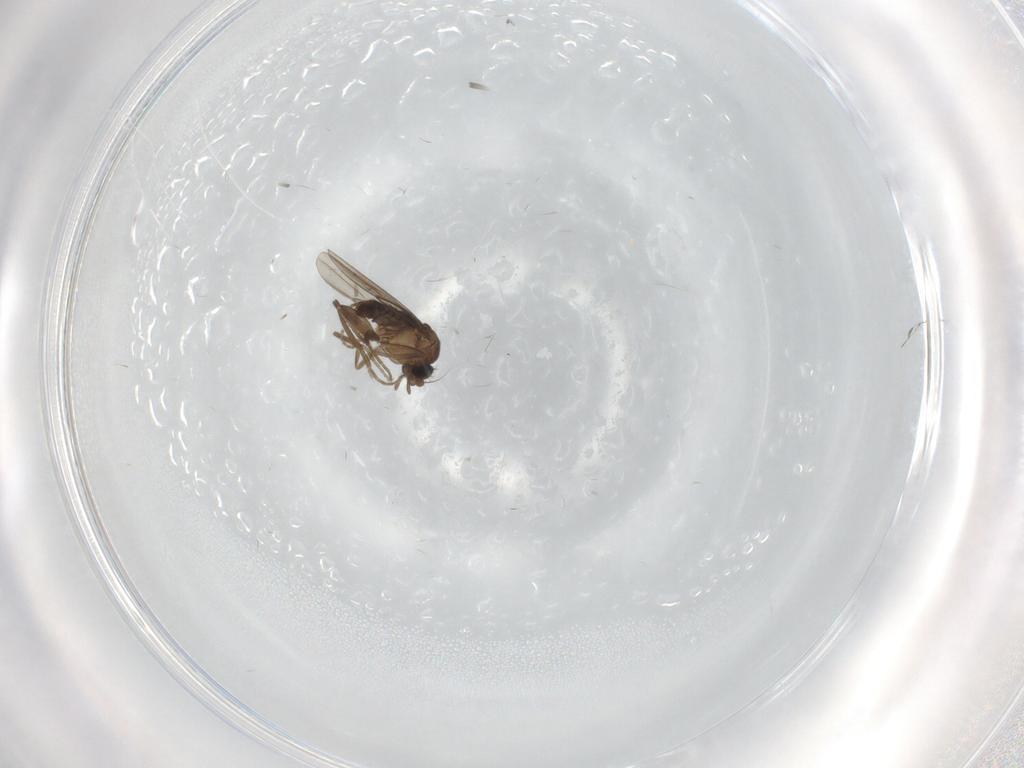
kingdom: Animalia
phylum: Arthropoda
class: Insecta
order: Diptera
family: Ceratopogonidae
